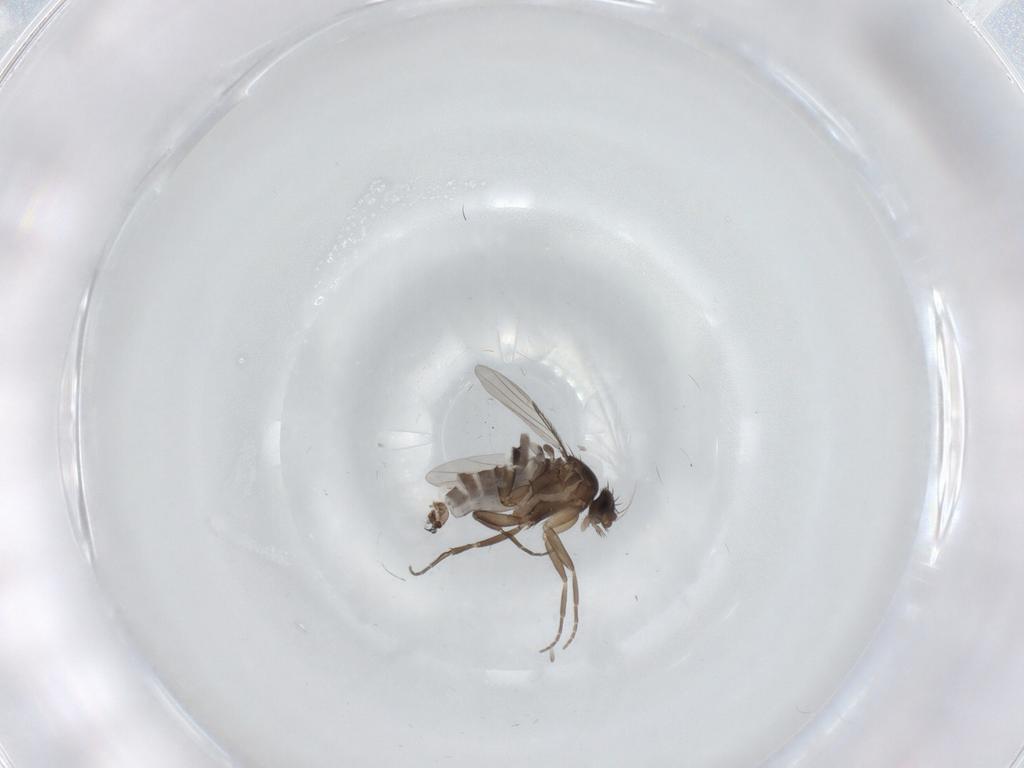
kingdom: Animalia
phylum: Arthropoda
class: Insecta
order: Diptera
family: Phoridae
